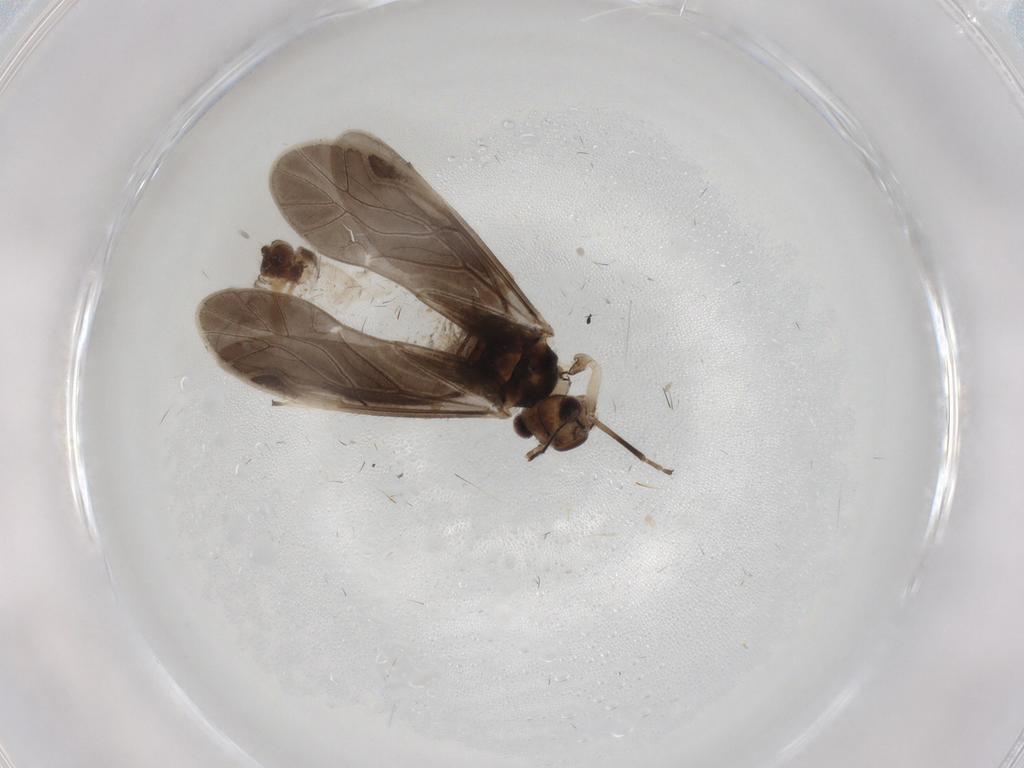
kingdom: Animalia
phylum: Arthropoda
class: Insecta
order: Psocodea
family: Caeciliusidae
